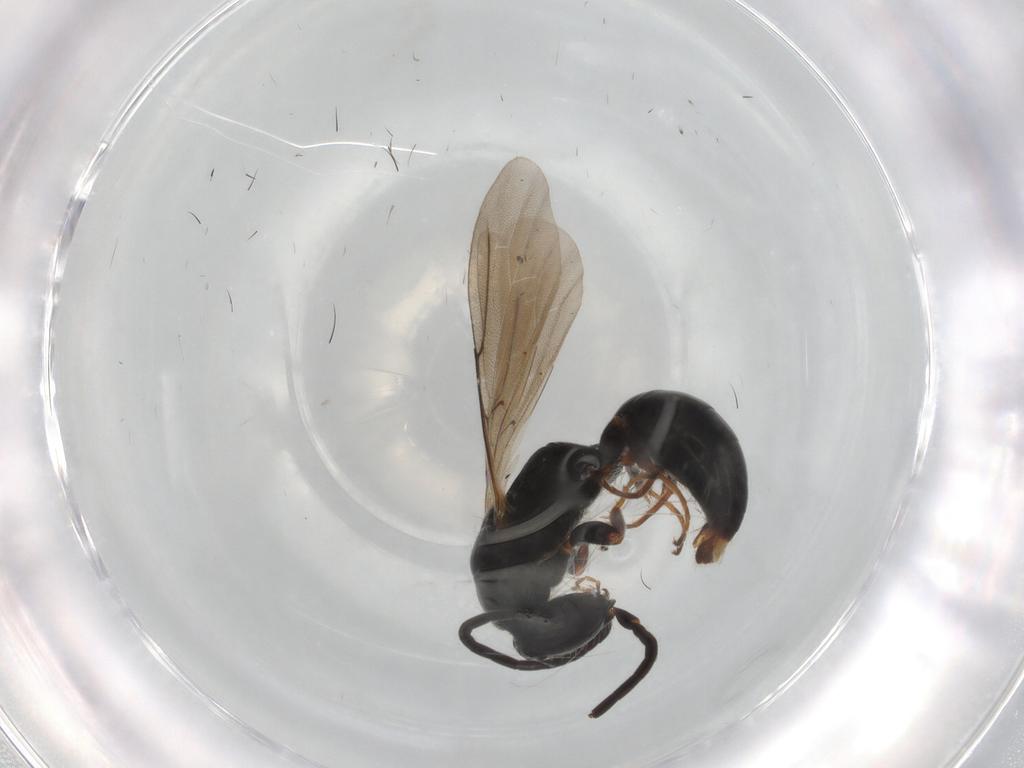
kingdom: Animalia
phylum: Arthropoda
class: Insecta
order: Hymenoptera
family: Bethylidae
